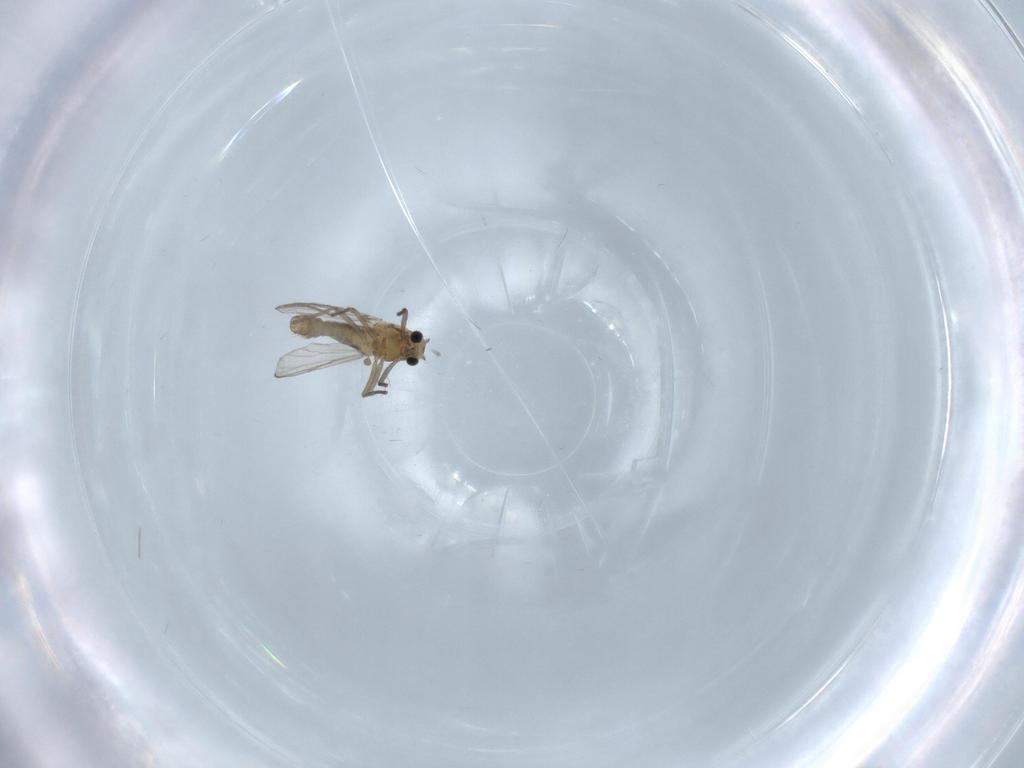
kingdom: Animalia
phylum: Arthropoda
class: Insecta
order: Diptera
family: Chironomidae
